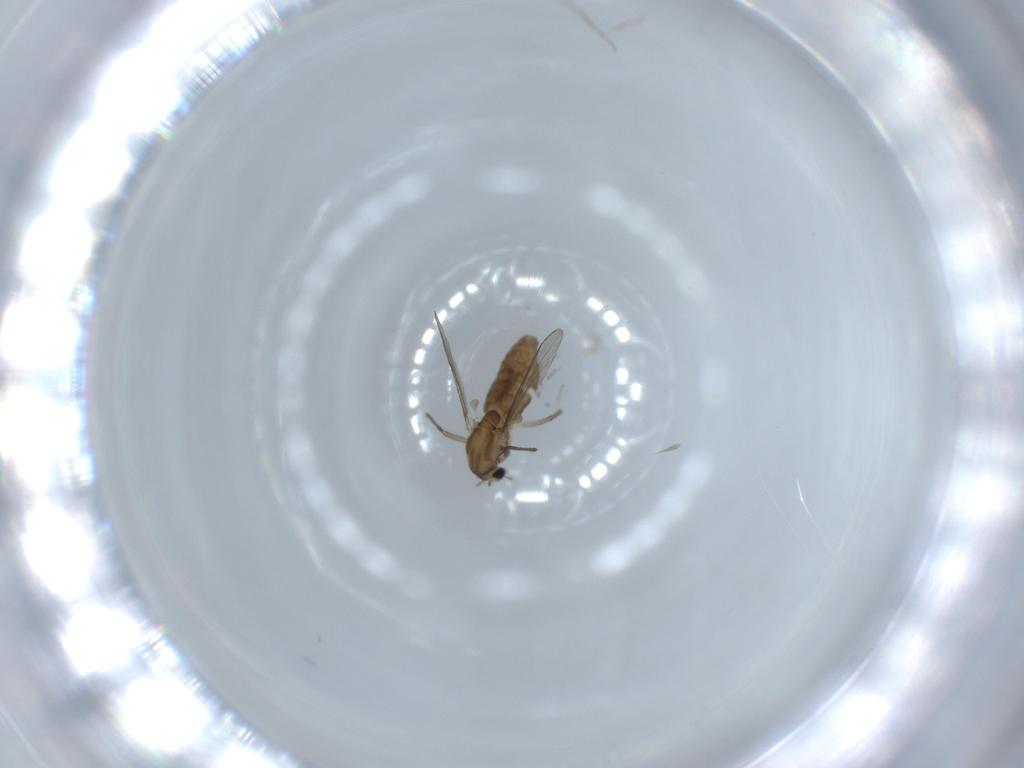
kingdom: Animalia
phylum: Arthropoda
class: Insecta
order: Diptera
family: Chironomidae
